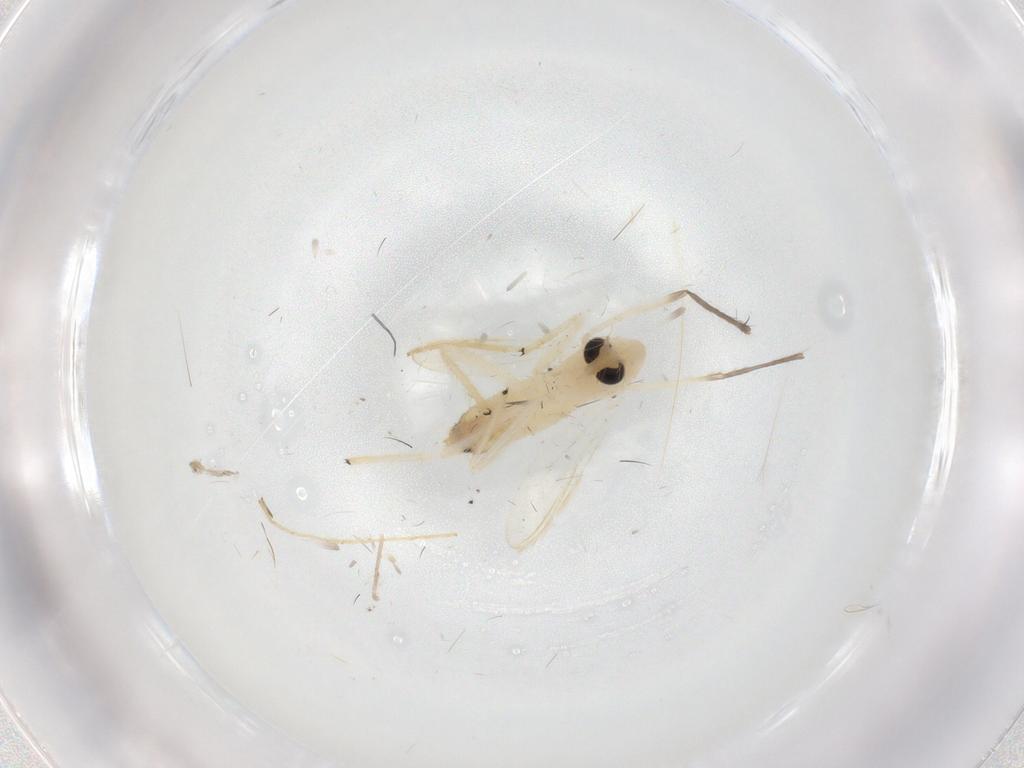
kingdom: Animalia
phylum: Arthropoda
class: Insecta
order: Diptera
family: Chironomidae
